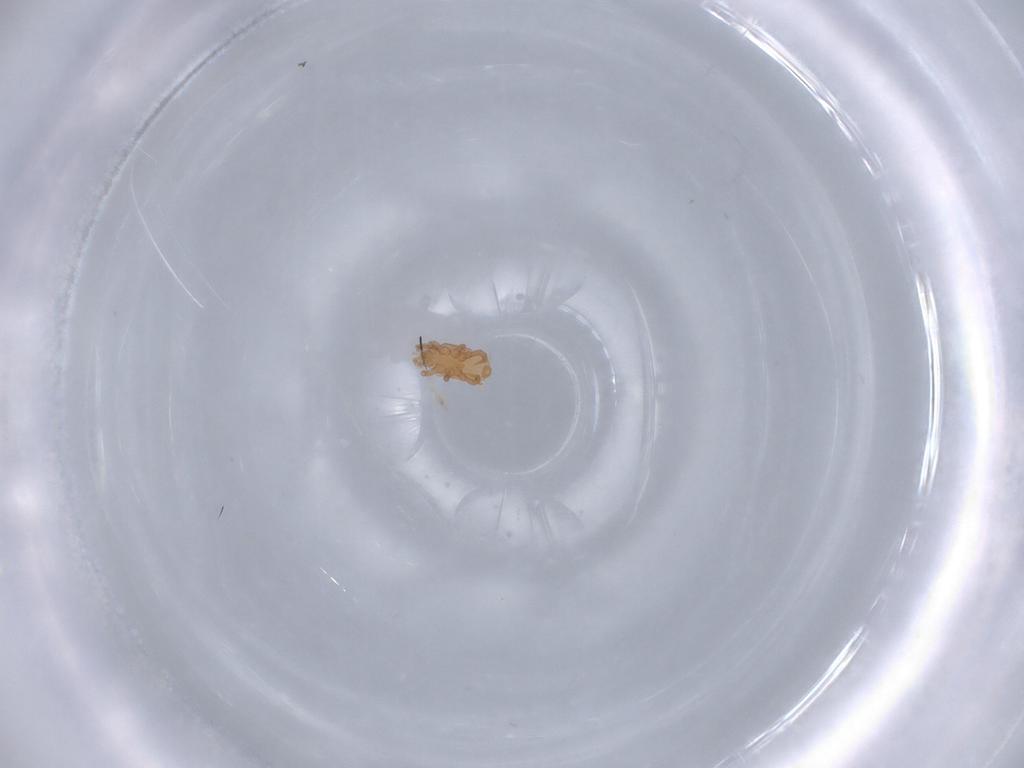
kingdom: Animalia
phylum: Arthropoda
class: Arachnida
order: Mesostigmata
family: Halolaelapidae
